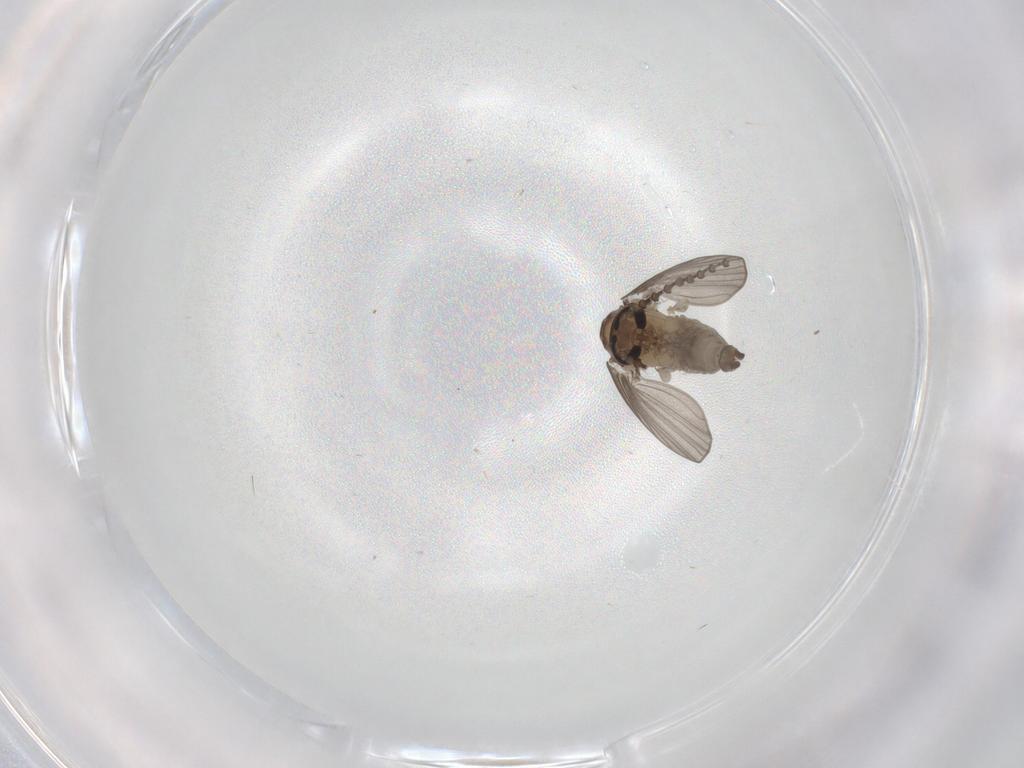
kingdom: Animalia
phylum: Arthropoda
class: Insecta
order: Diptera
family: Psychodidae
